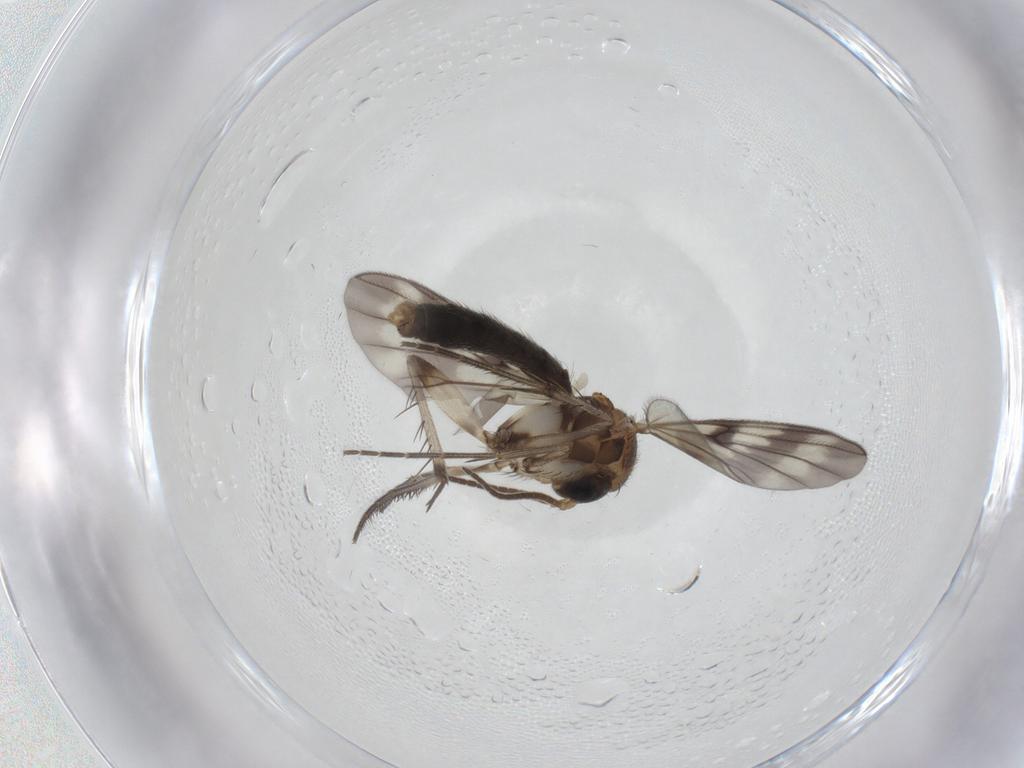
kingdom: Animalia
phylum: Arthropoda
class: Insecta
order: Diptera
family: Mycetophilidae
